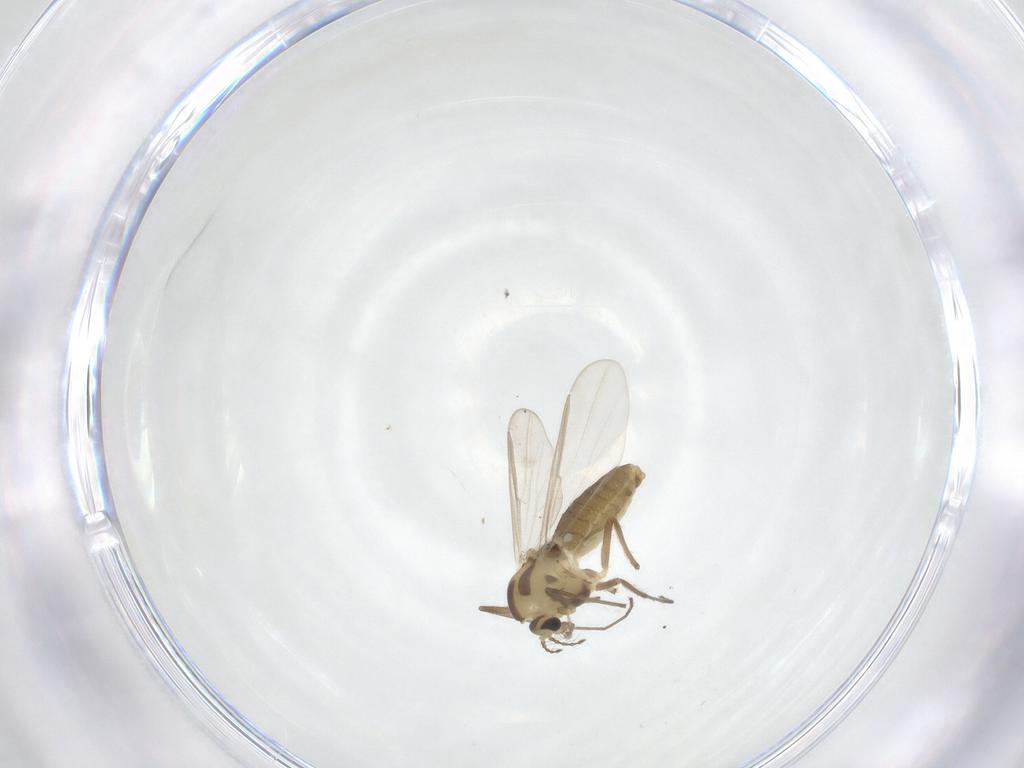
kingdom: Animalia
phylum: Arthropoda
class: Insecta
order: Diptera
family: Chironomidae
